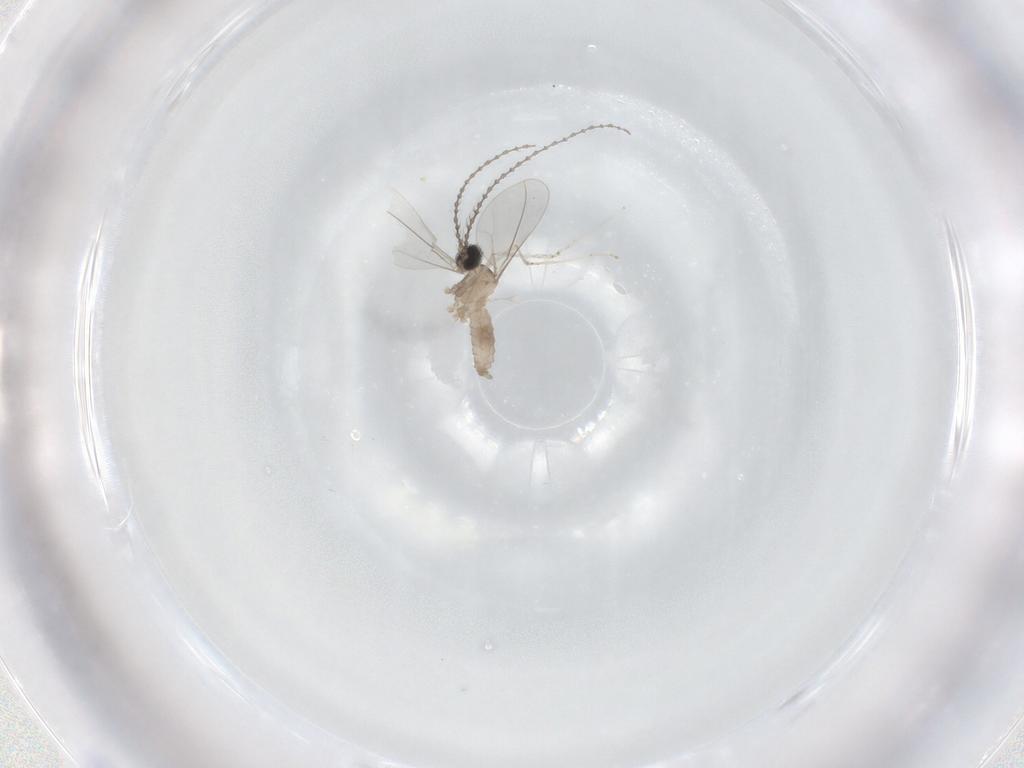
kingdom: Animalia
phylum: Arthropoda
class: Insecta
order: Diptera
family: Cecidomyiidae
